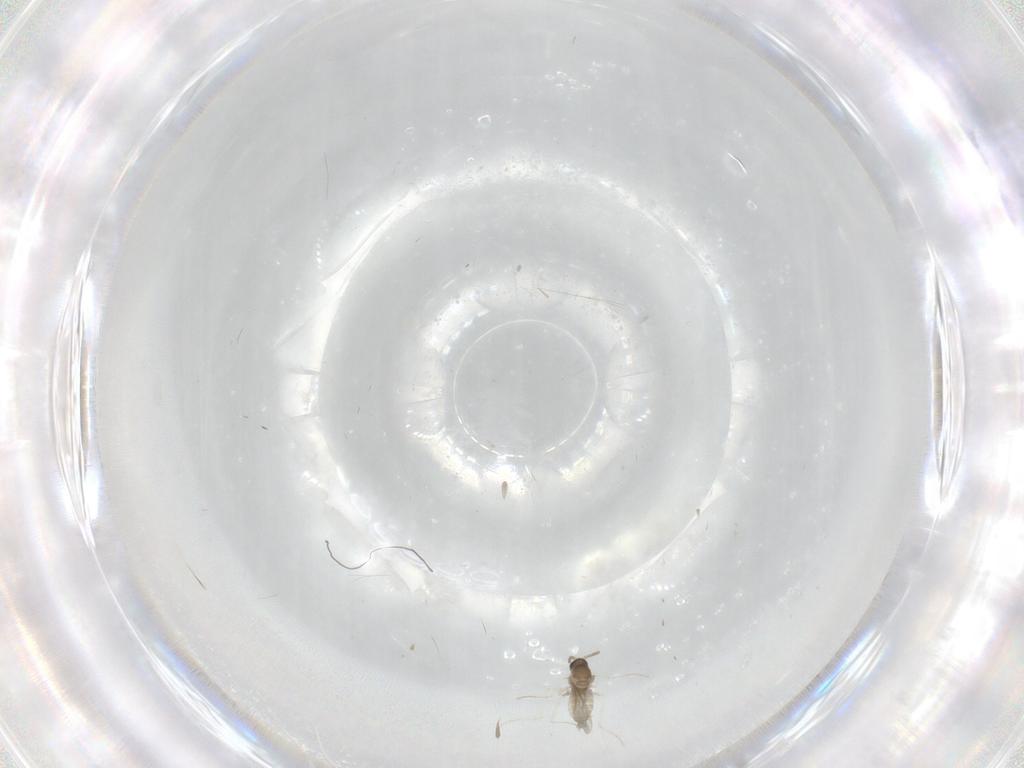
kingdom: Animalia
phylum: Arthropoda
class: Insecta
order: Diptera
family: Cecidomyiidae
